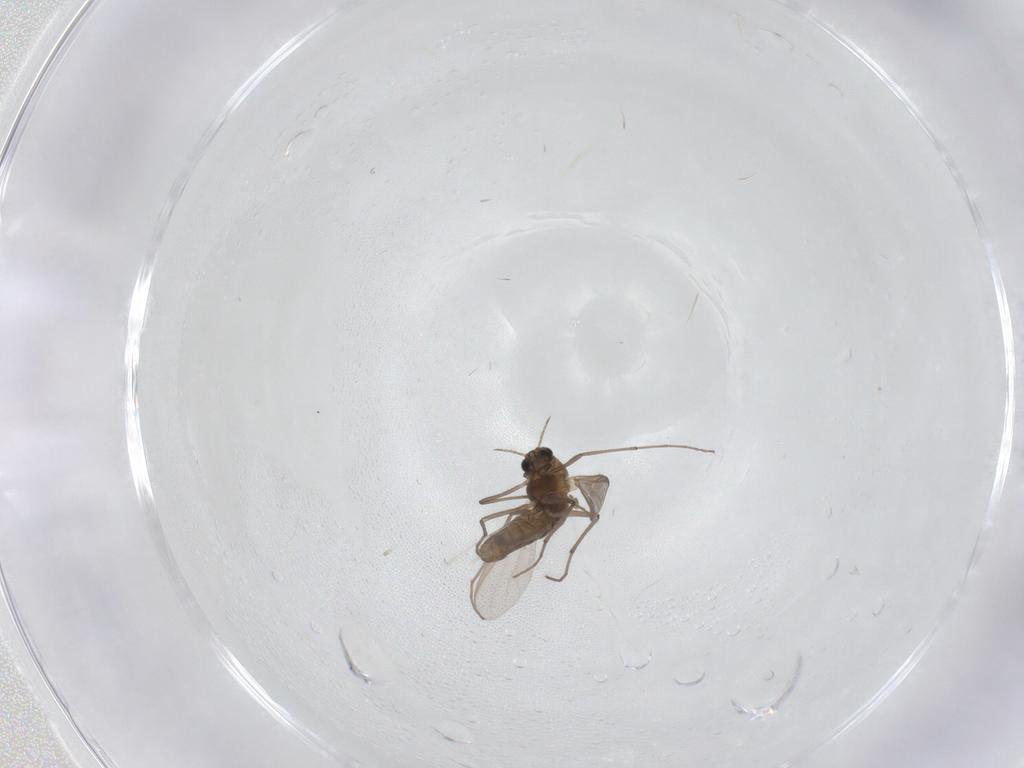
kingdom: Animalia
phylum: Arthropoda
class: Insecta
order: Diptera
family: Chironomidae
